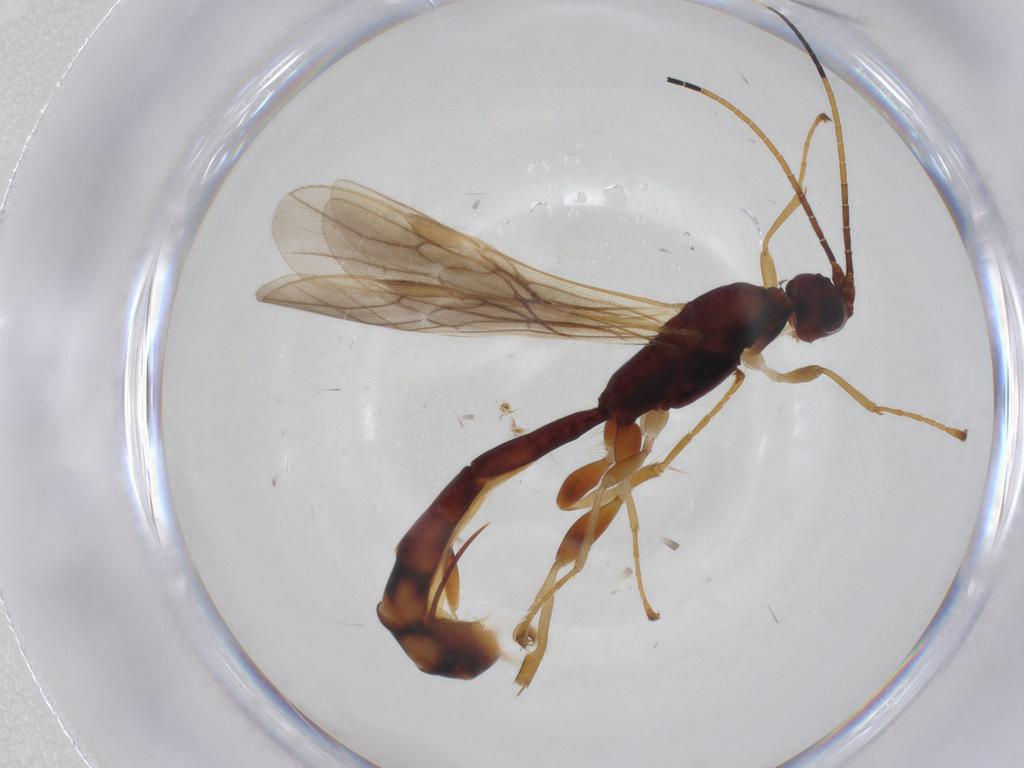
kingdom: Animalia
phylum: Arthropoda
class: Insecta
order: Hymenoptera
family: Braconidae
